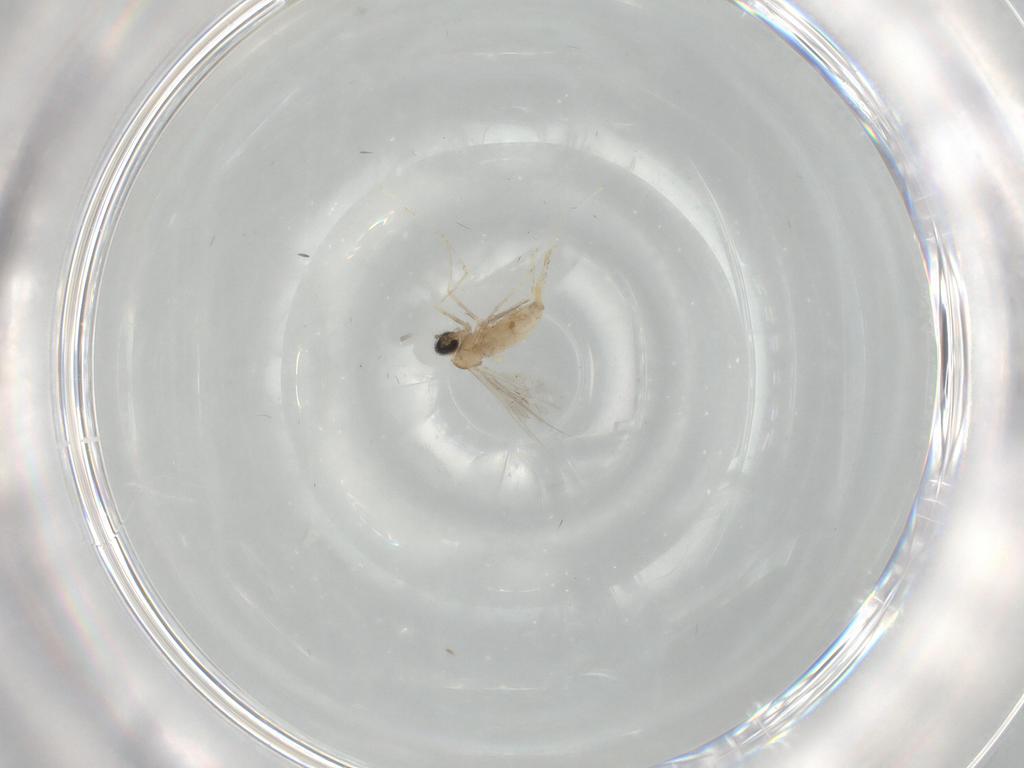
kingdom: Animalia
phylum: Arthropoda
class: Insecta
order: Diptera
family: Cecidomyiidae
